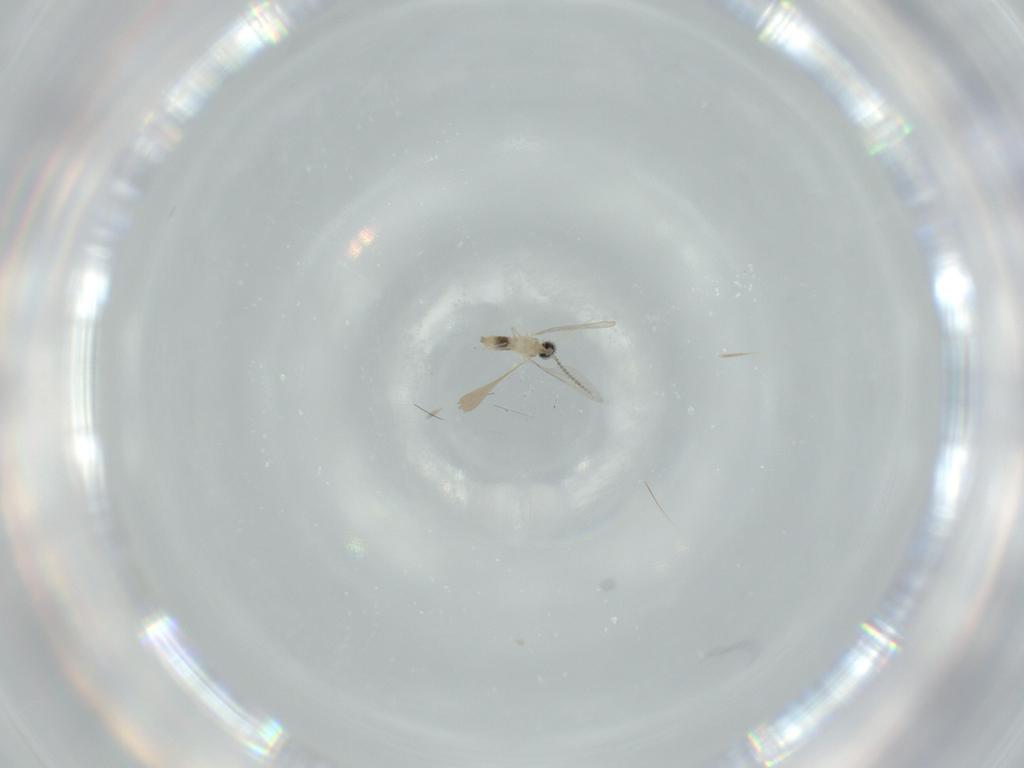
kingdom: Animalia
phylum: Arthropoda
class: Insecta
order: Diptera
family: Cecidomyiidae
